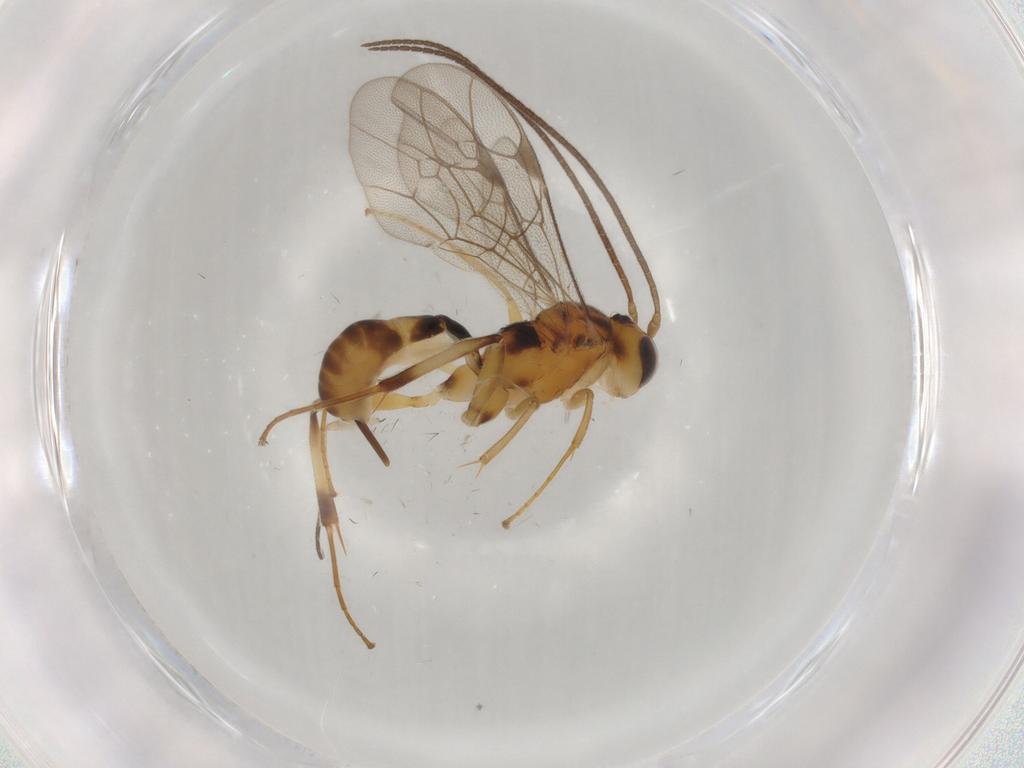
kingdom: Animalia
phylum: Arthropoda
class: Insecta
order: Hymenoptera
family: Ichneumonidae
